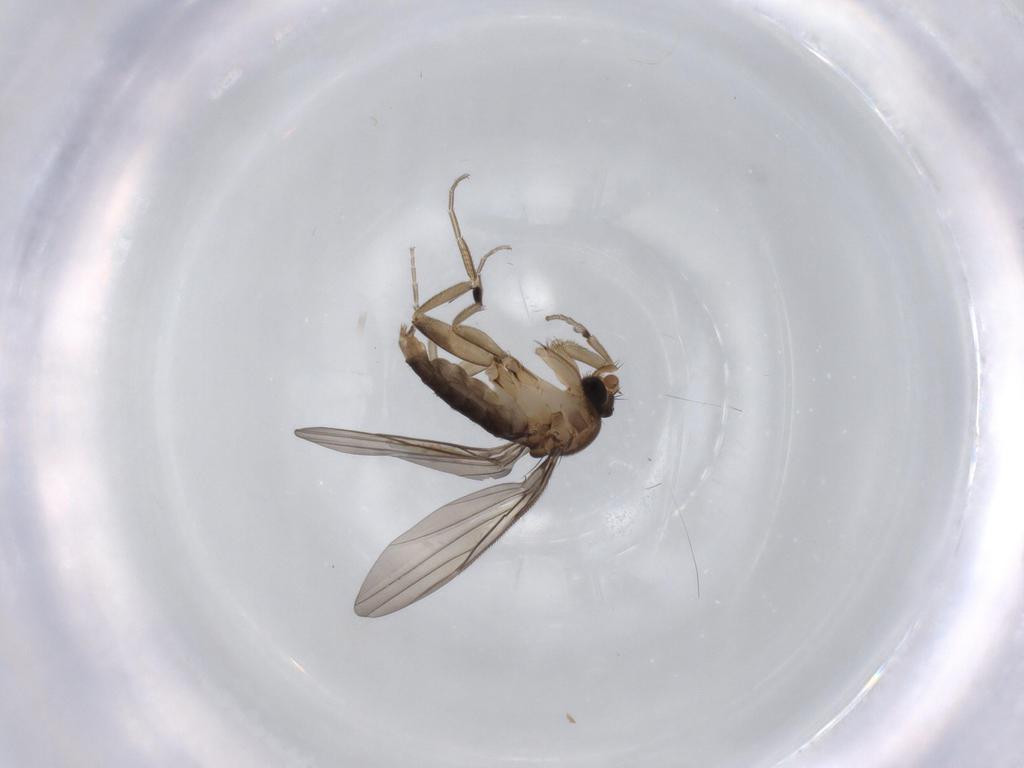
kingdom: Animalia
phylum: Arthropoda
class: Insecta
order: Diptera
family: Phoridae
